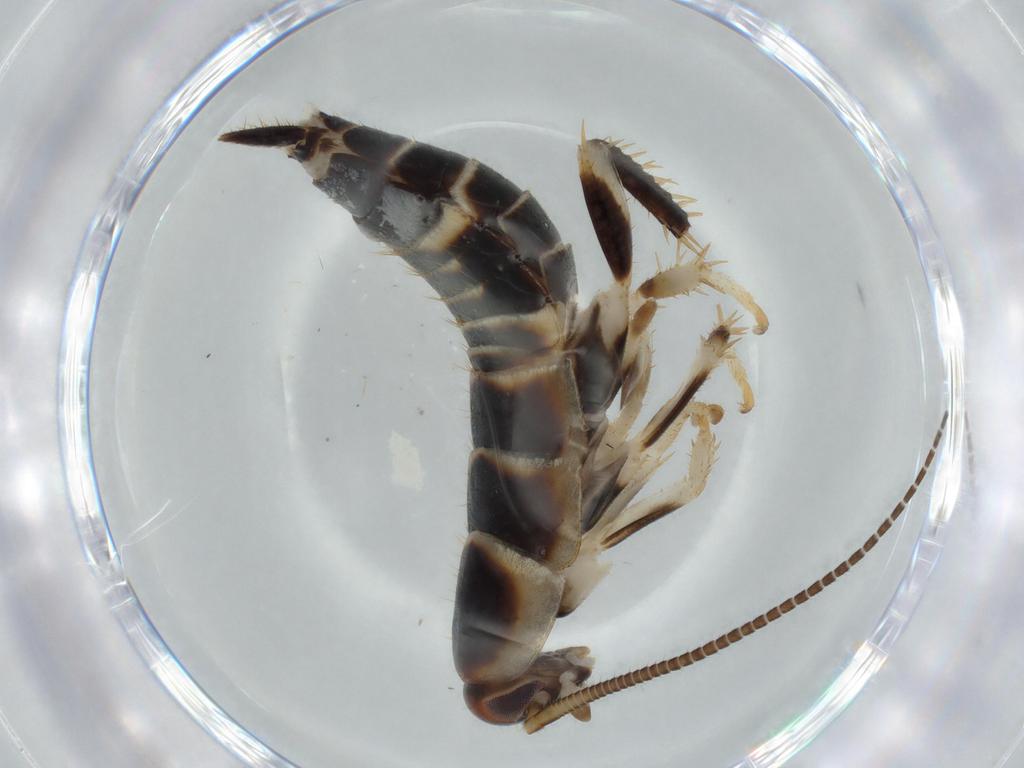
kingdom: Animalia
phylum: Arthropoda
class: Insecta
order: Blattodea
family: Ectobiidae
